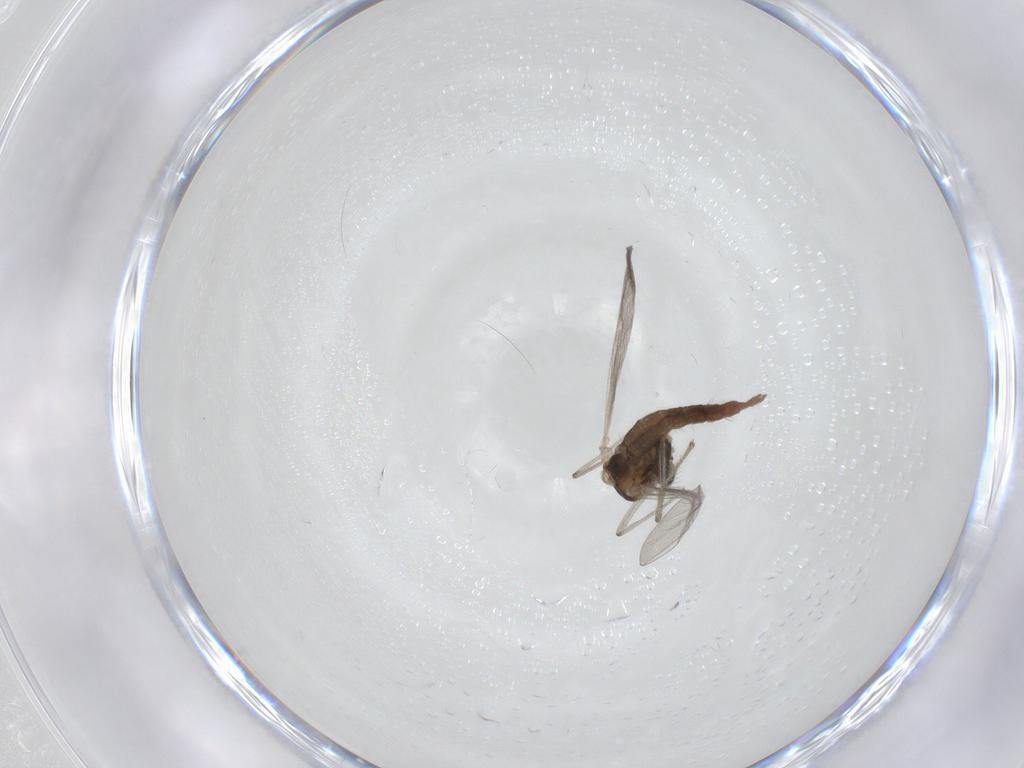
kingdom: Animalia
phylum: Arthropoda
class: Insecta
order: Diptera
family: Chironomidae
